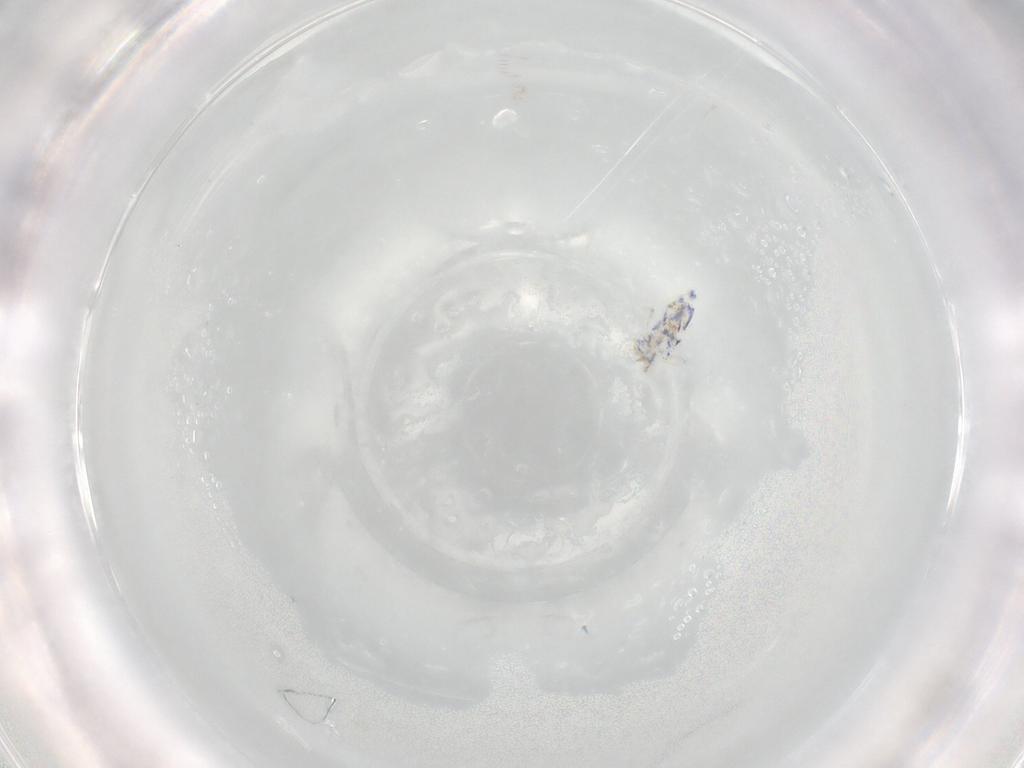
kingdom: Animalia
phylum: Arthropoda
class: Collembola
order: Entomobryomorpha
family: Entomobryidae
